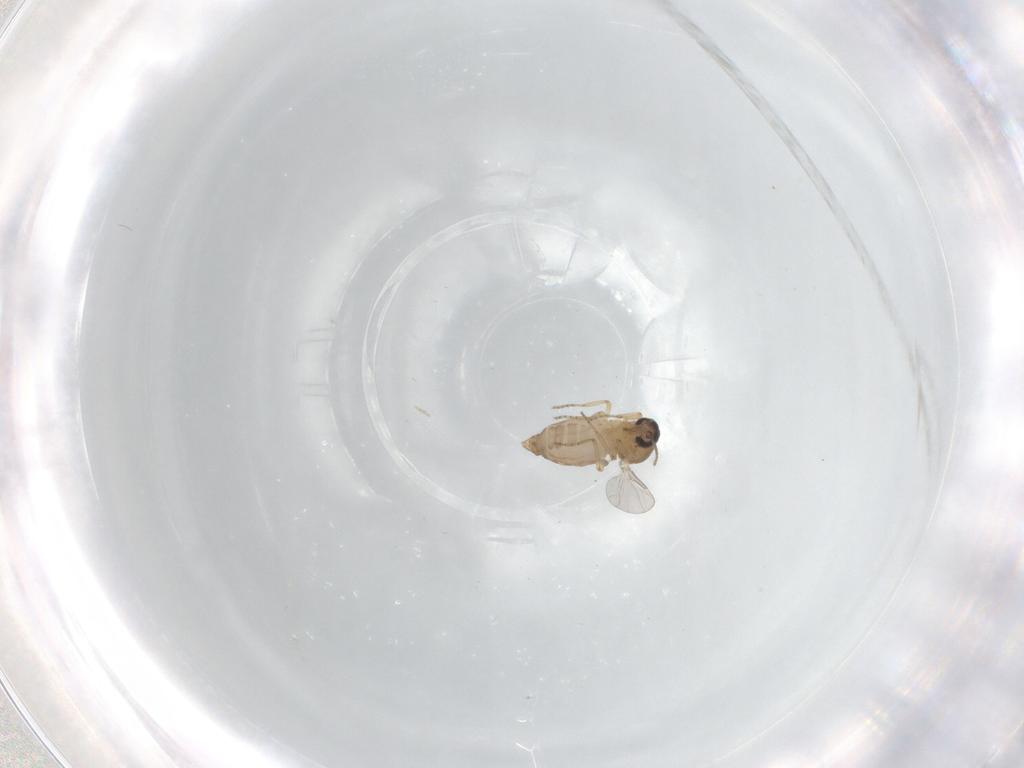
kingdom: Animalia
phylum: Arthropoda
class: Insecta
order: Diptera
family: Ceratopogonidae
